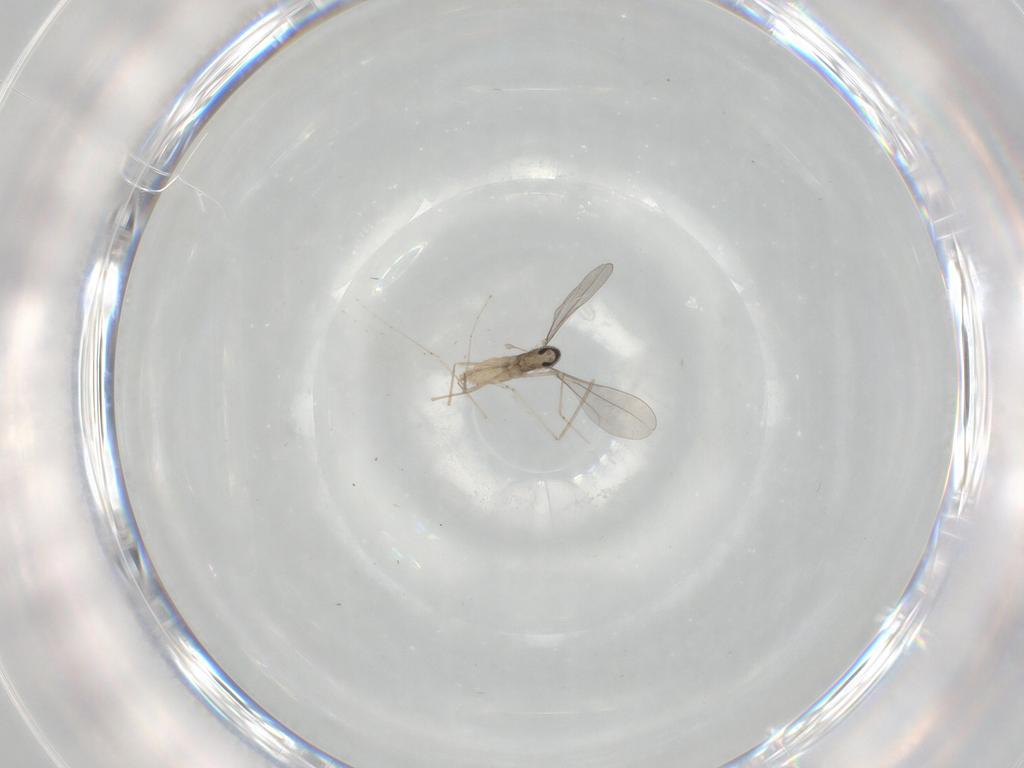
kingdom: Animalia
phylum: Arthropoda
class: Insecta
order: Diptera
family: Cecidomyiidae
